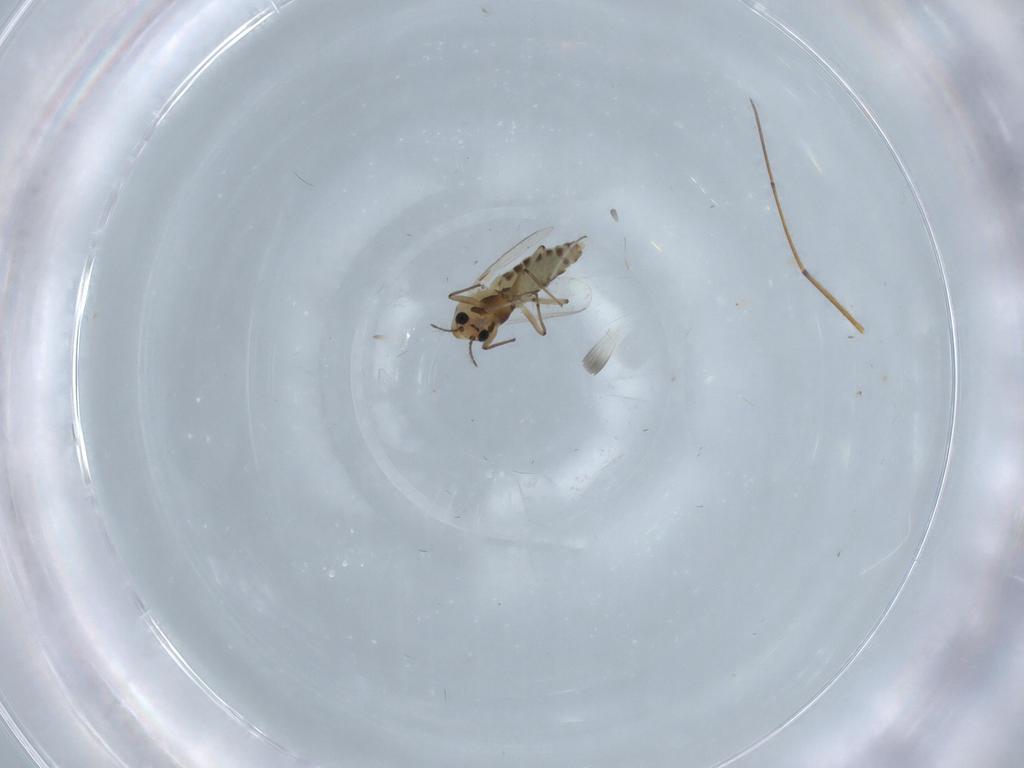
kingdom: Animalia
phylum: Arthropoda
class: Insecta
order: Diptera
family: Chironomidae
